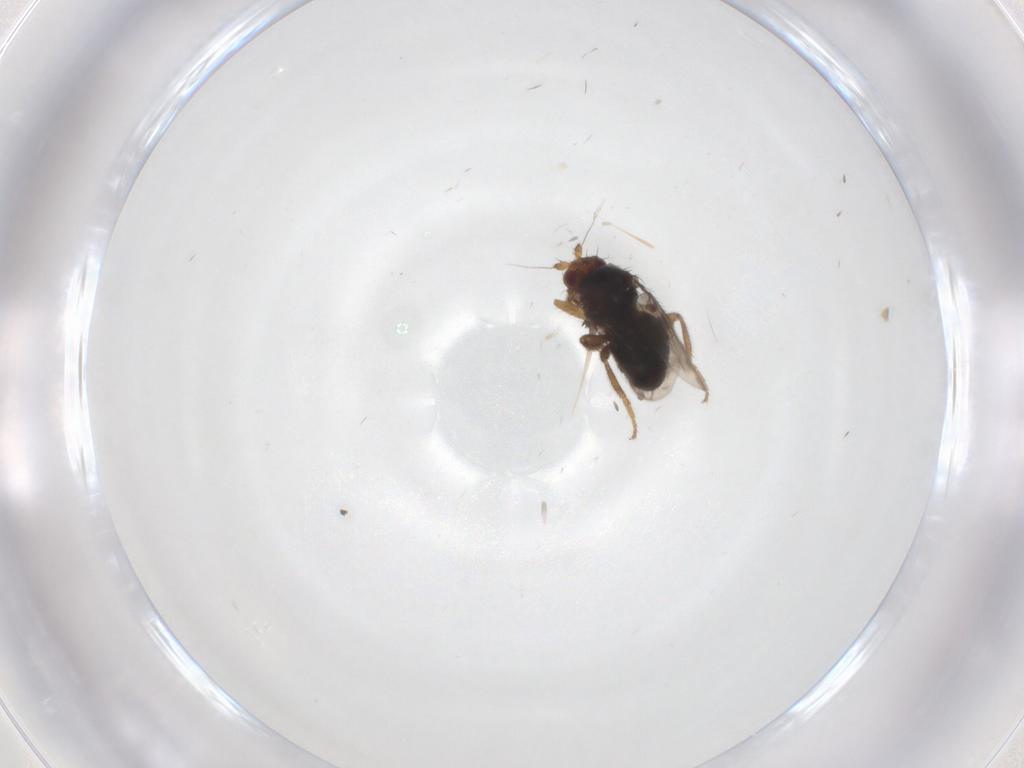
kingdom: Animalia
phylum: Arthropoda
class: Insecta
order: Diptera
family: Sphaeroceridae
